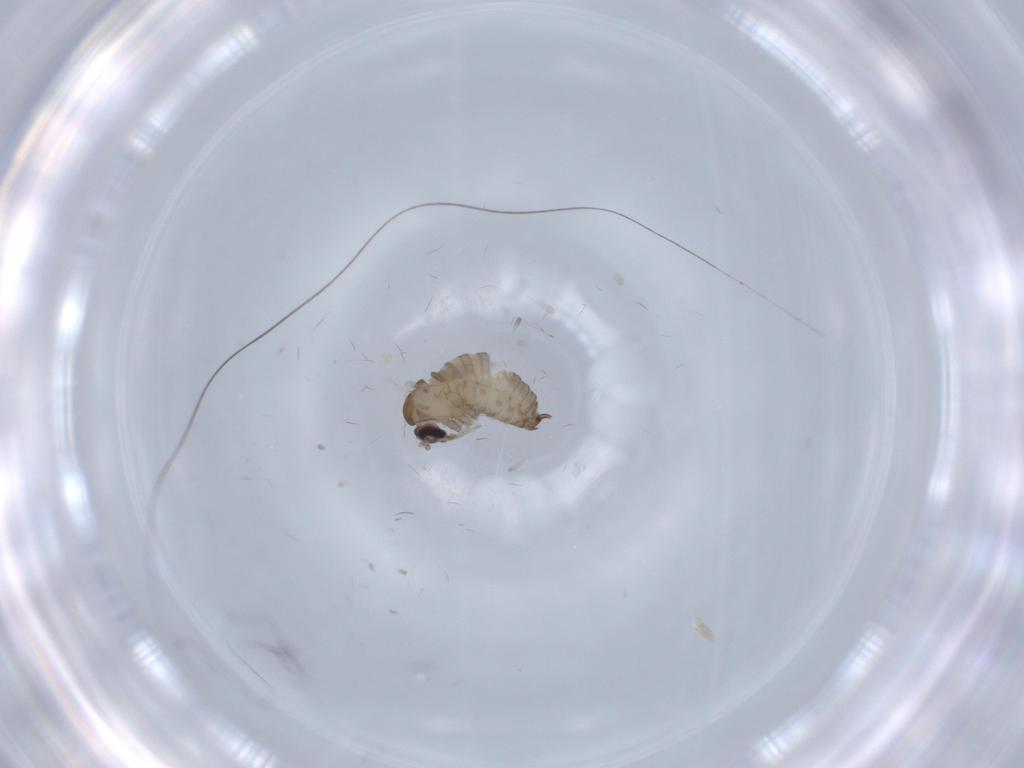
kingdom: Animalia
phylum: Arthropoda
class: Insecta
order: Diptera
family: Psychodidae
